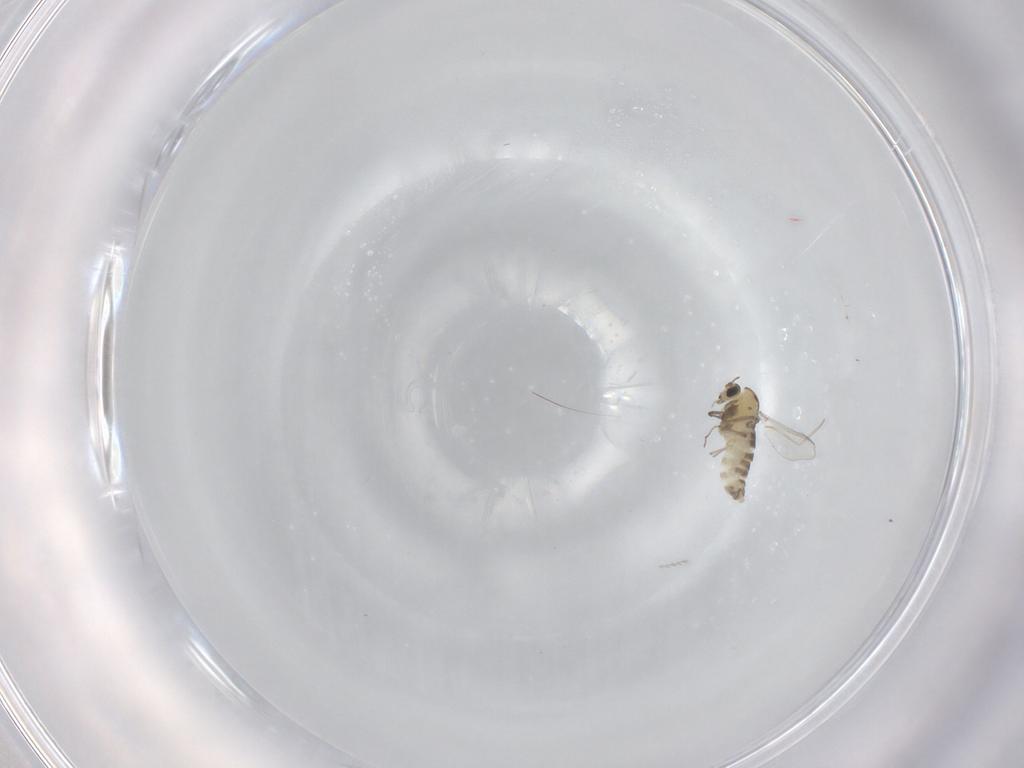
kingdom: Animalia
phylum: Arthropoda
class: Insecta
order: Diptera
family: Chironomidae
